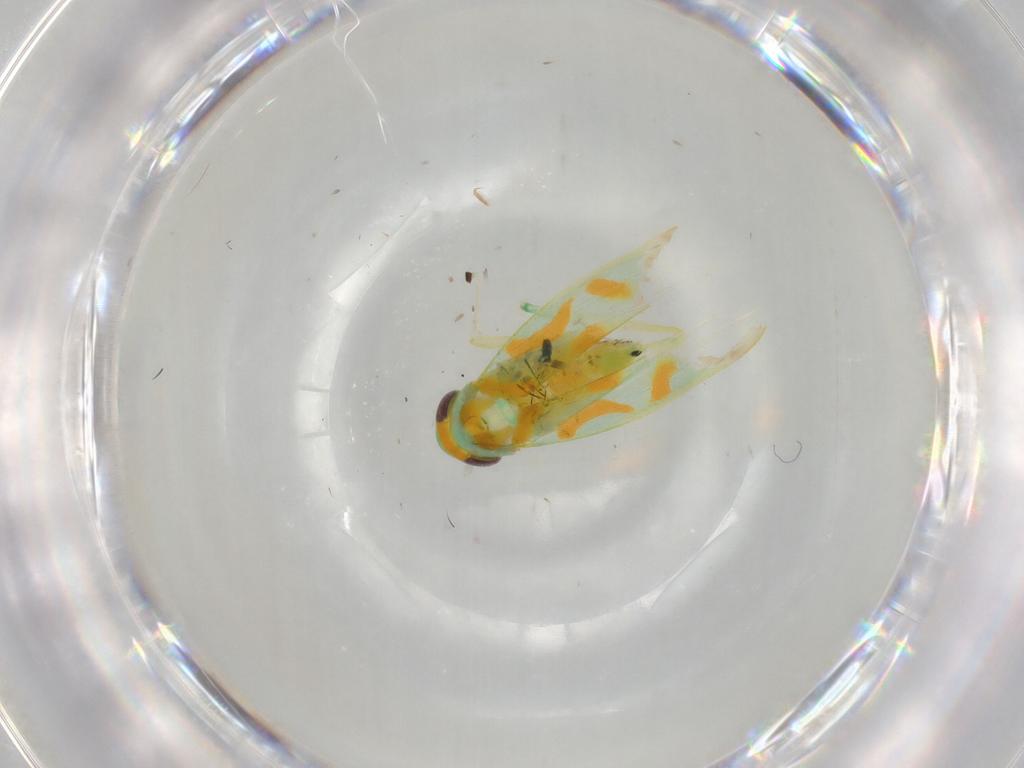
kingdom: Animalia
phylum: Arthropoda
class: Insecta
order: Hemiptera
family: Cicadellidae
